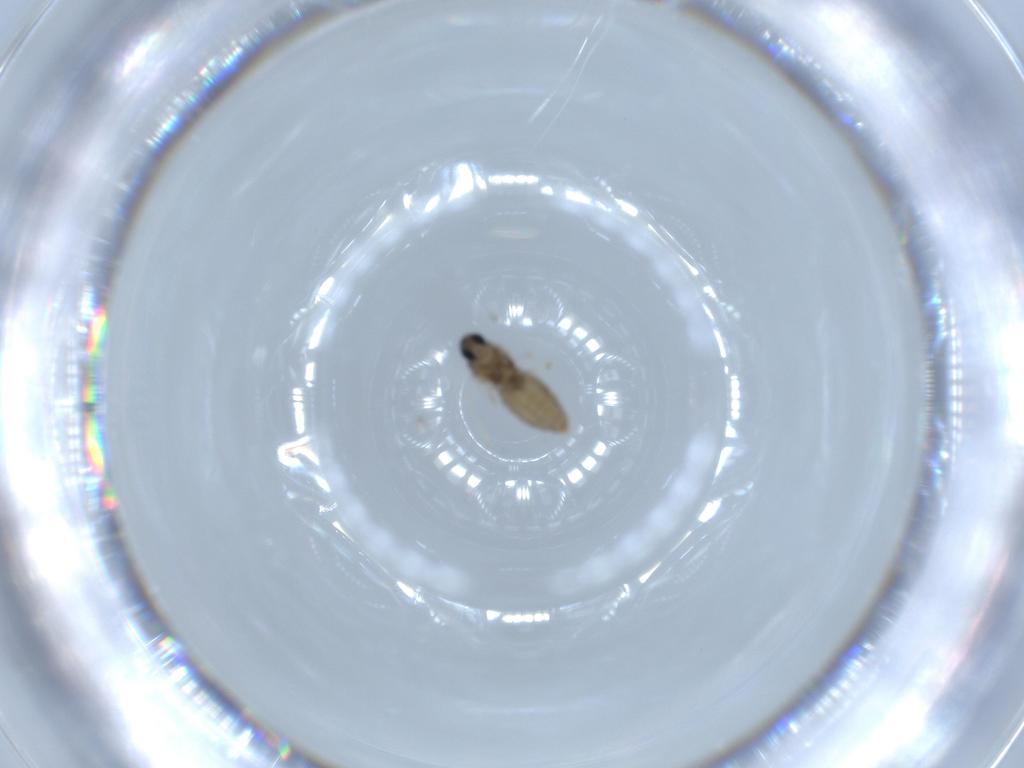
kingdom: Animalia
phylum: Arthropoda
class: Insecta
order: Diptera
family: Cecidomyiidae
